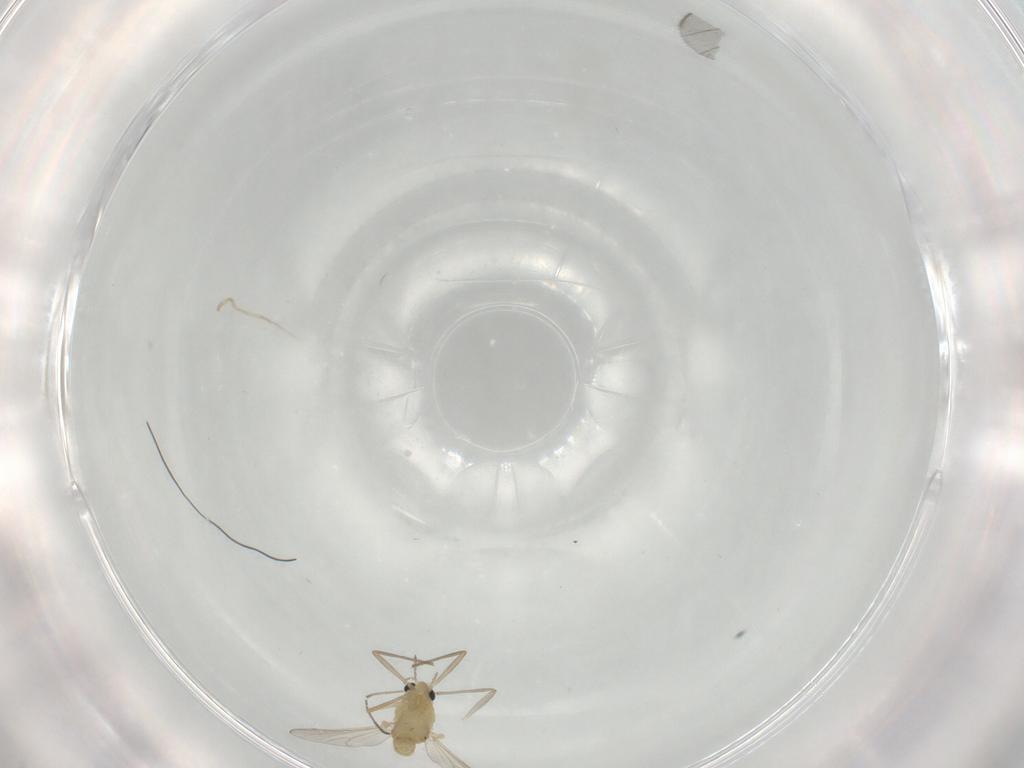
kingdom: Animalia
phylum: Arthropoda
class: Insecta
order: Diptera
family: Chironomidae
